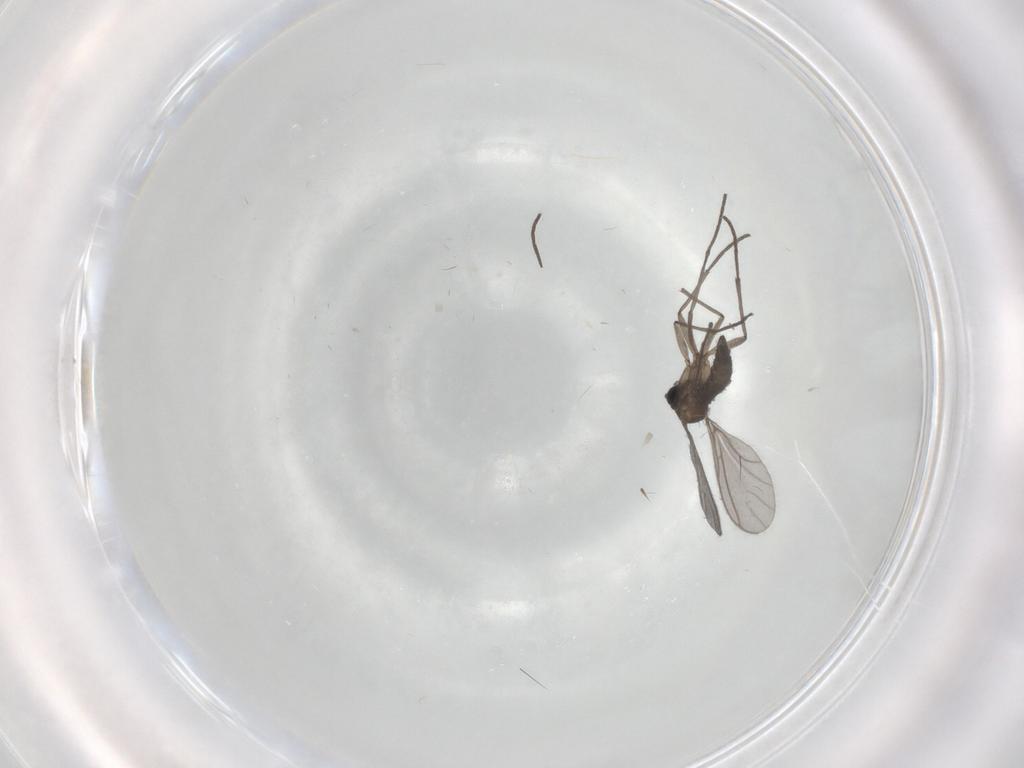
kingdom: Animalia
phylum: Arthropoda
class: Insecta
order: Diptera
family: Sciaridae
